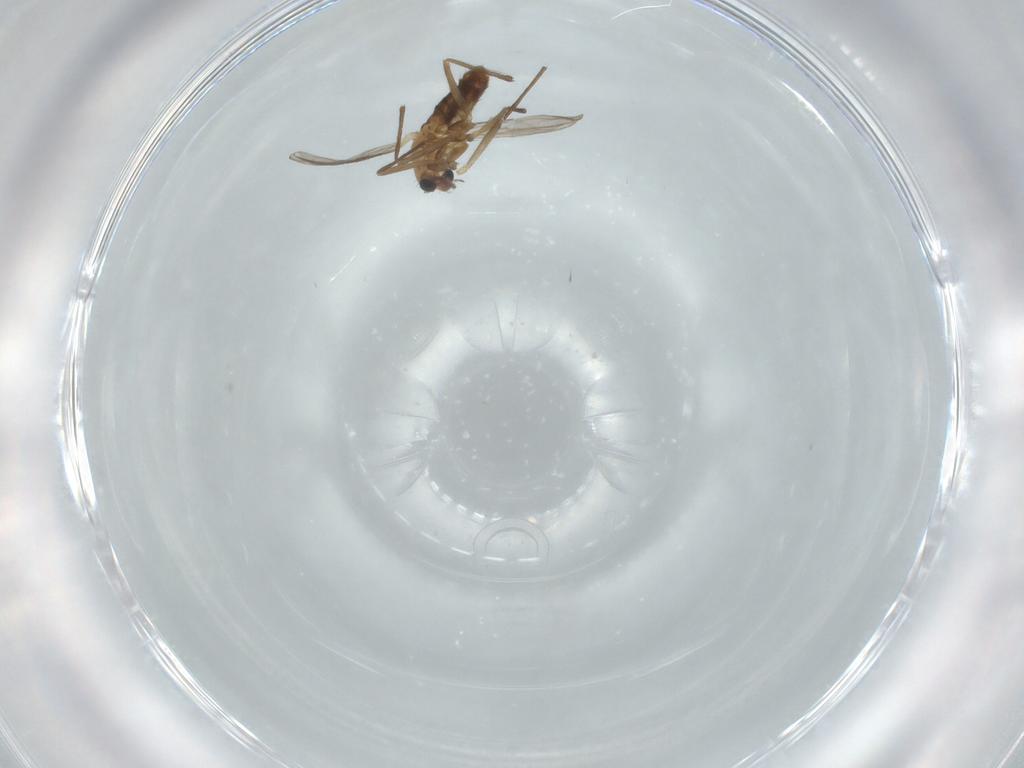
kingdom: Animalia
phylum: Arthropoda
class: Insecta
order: Diptera
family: Chironomidae
